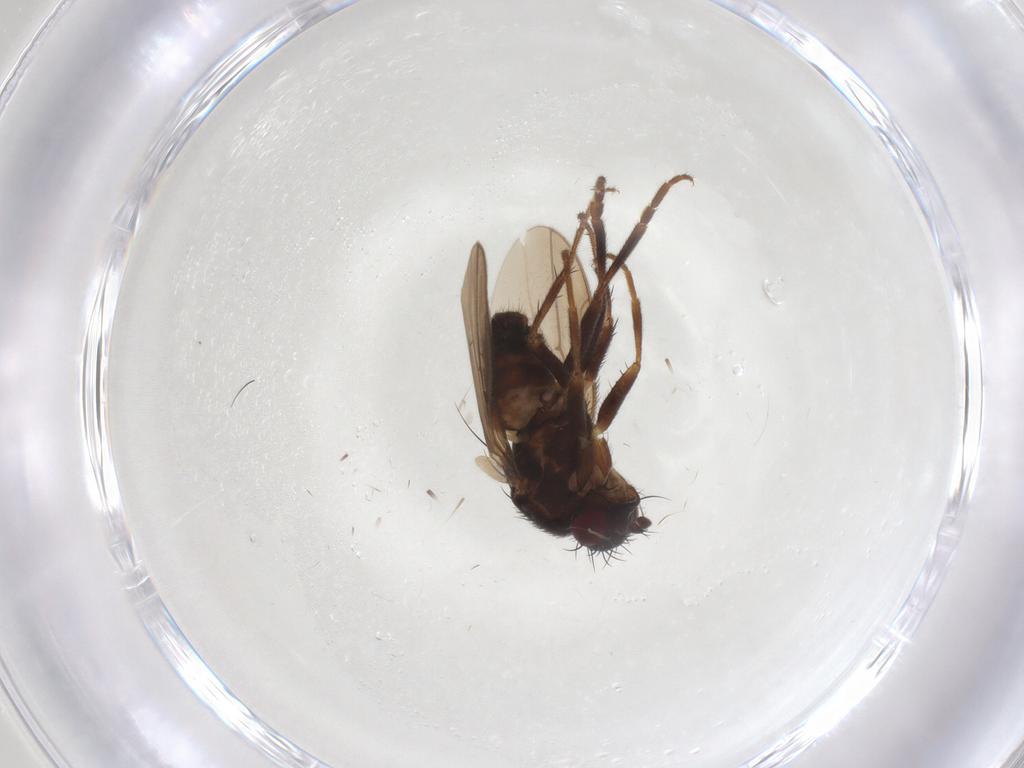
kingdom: Animalia
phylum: Arthropoda
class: Insecta
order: Diptera
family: Sphaeroceridae
